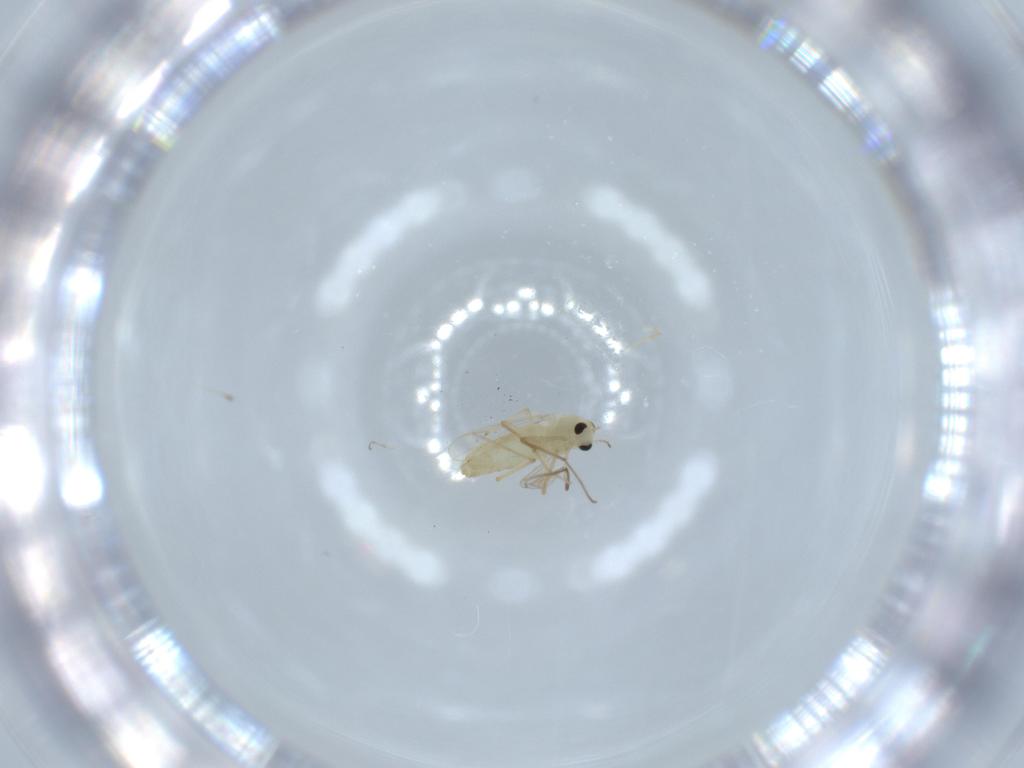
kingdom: Animalia
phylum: Arthropoda
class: Insecta
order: Diptera
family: Chironomidae
